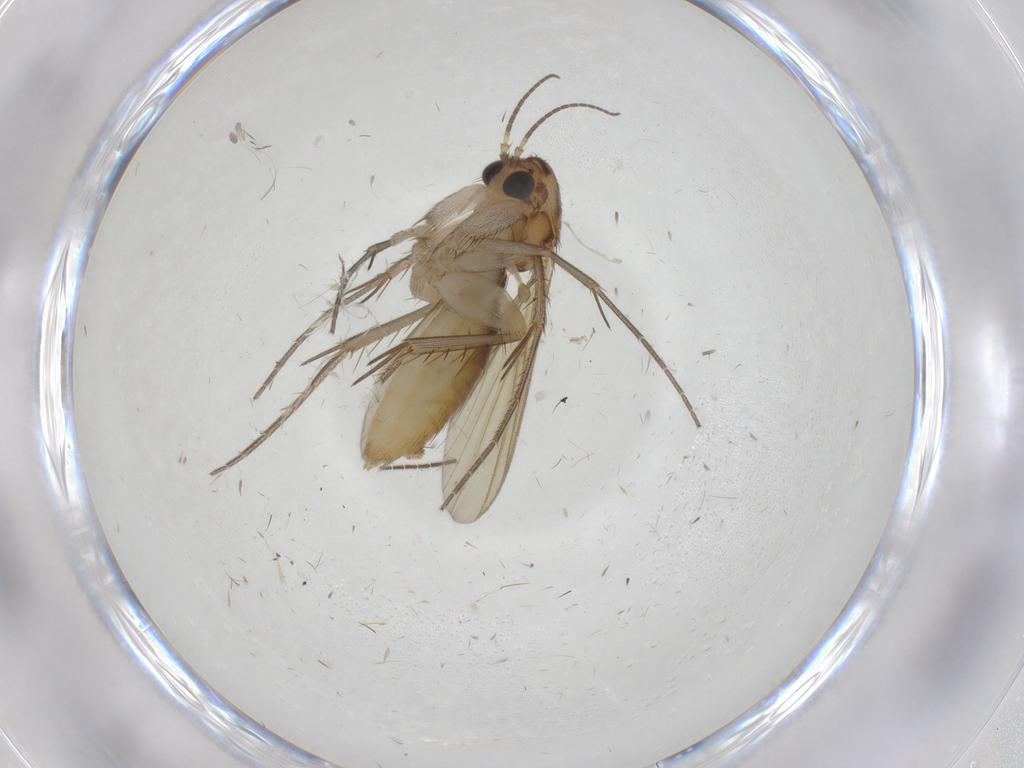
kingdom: Animalia
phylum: Arthropoda
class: Insecta
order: Diptera
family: Mycetophilidae
